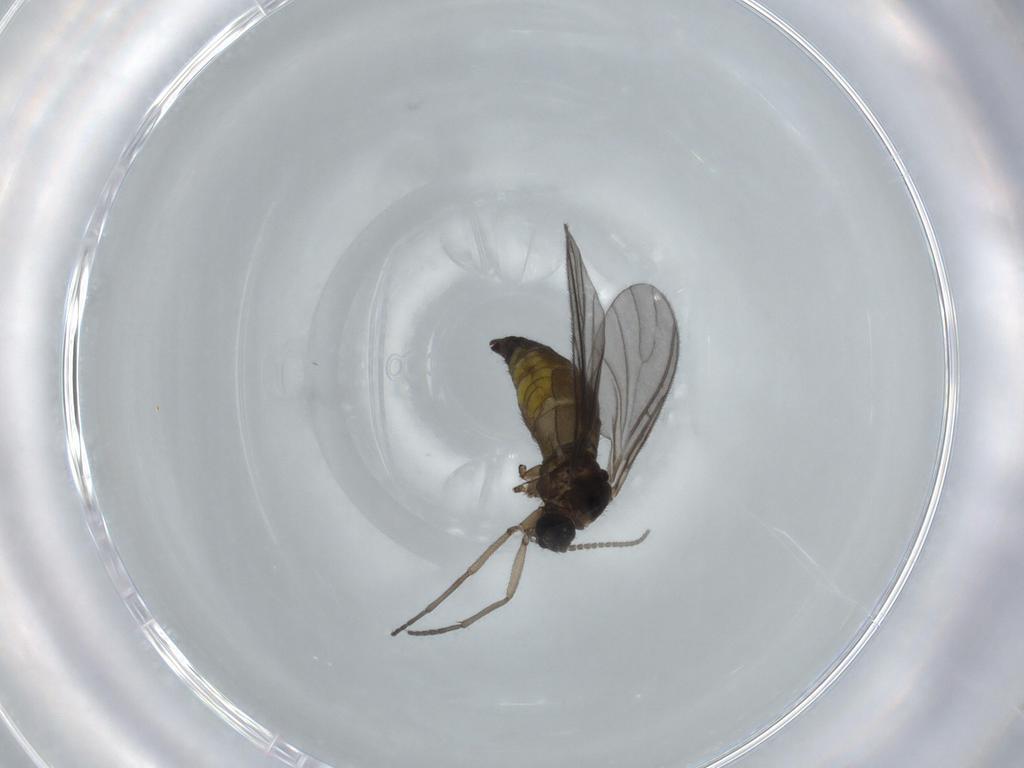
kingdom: Animalia
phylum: Arthropoda
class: Insecta
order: Diptera
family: Sciaridae
